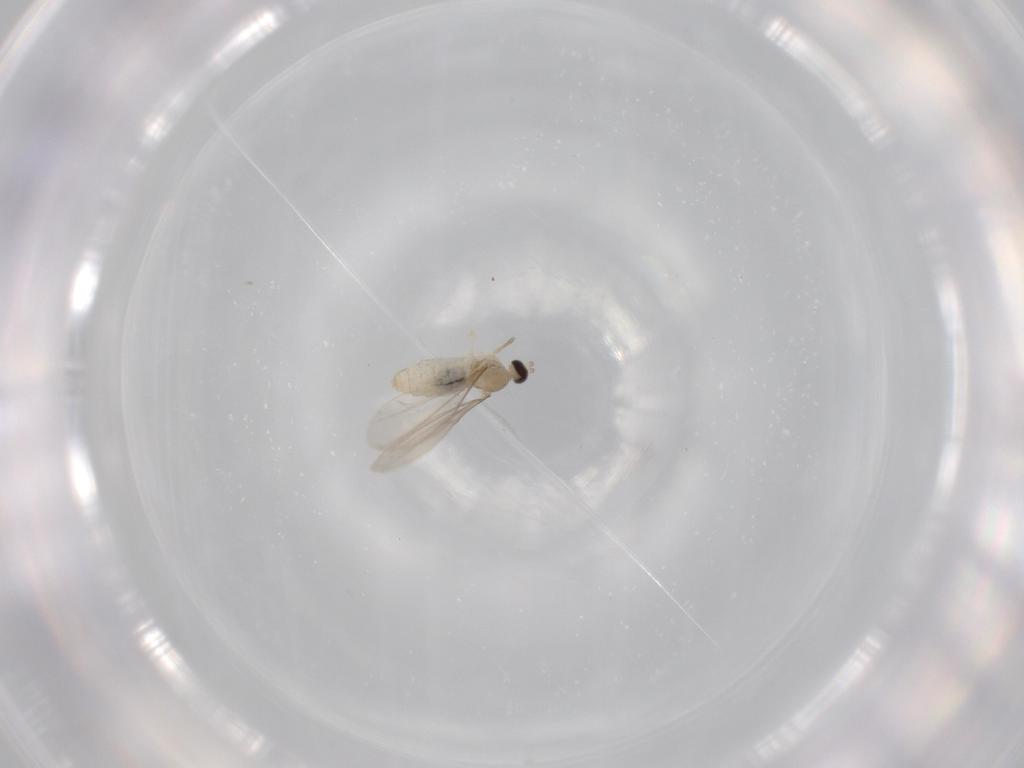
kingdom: Animalia
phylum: Arthropoda
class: Insecta
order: Diptera
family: Cecidomyiidae
